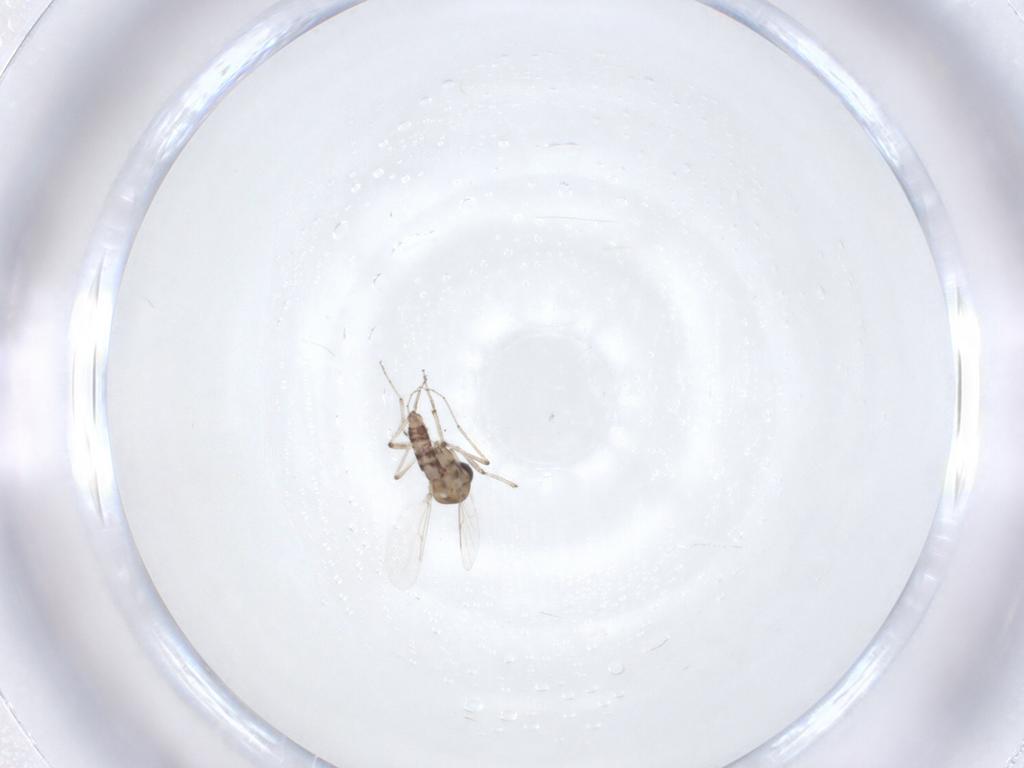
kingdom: Animalia
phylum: Arthropoda
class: Insecta
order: Diptera
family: Ceratopogonidae
